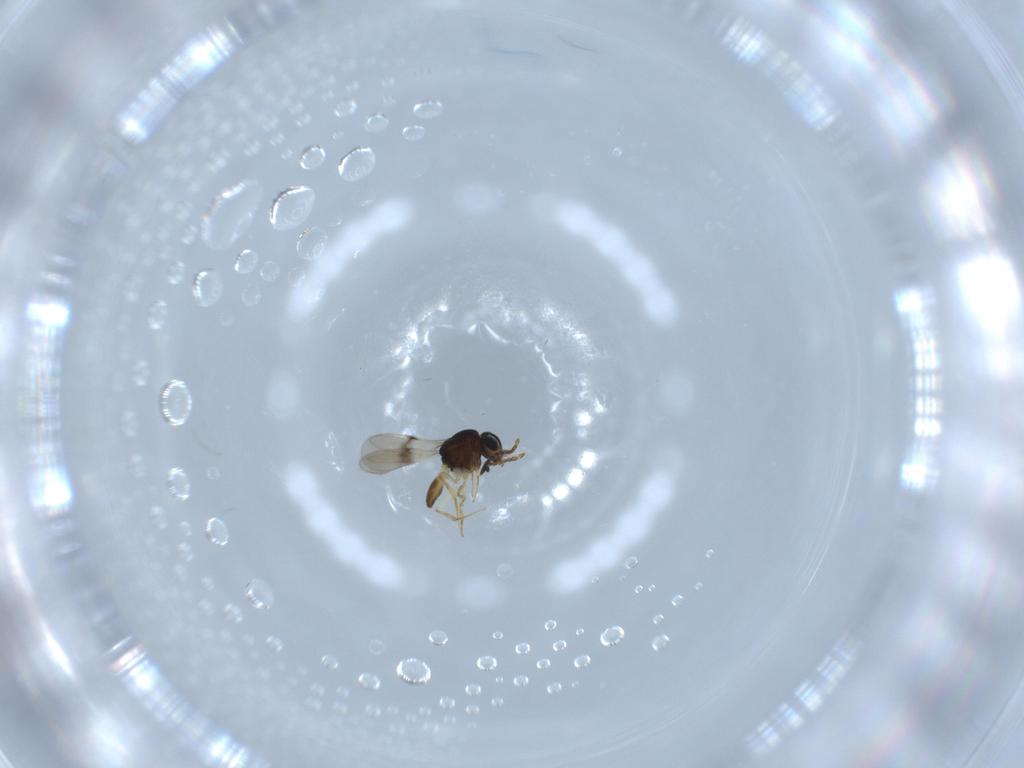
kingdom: Animalia
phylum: Arthropoda
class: Insecta
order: Hymenoptera
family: Scelionidae
